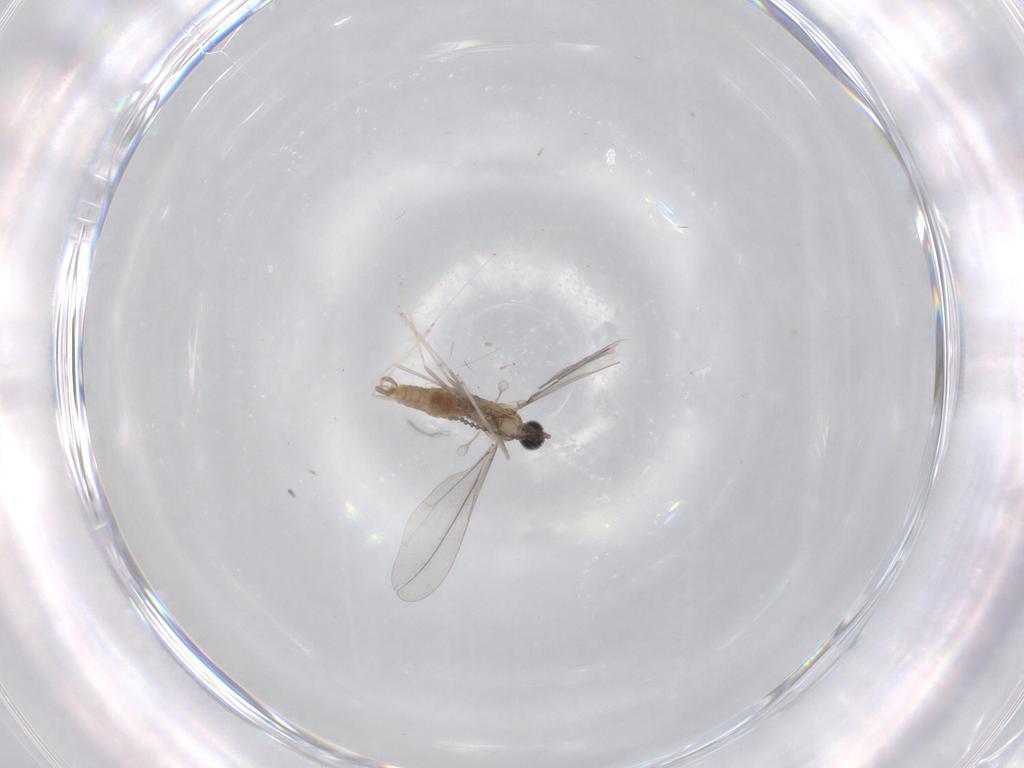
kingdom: Animalia
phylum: Arthropoda
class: Insecta
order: Diptera
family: Cecidomyiidae
